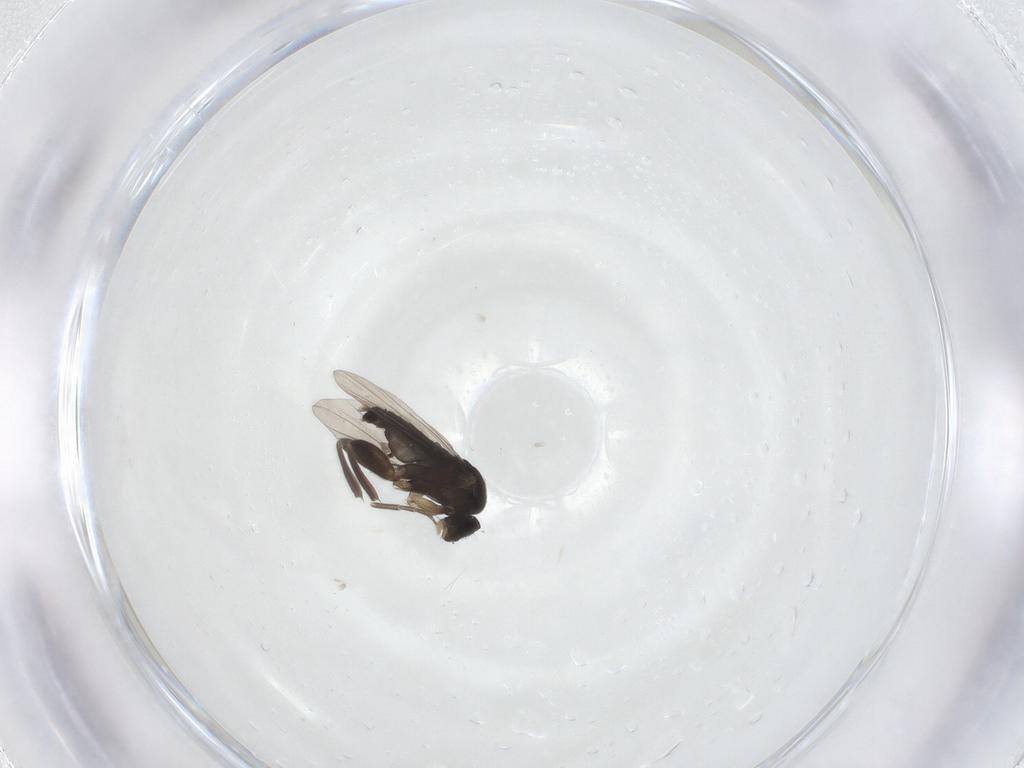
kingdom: Animalia
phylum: Arthropoda
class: Insecta
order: Diptera
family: Phoridae
